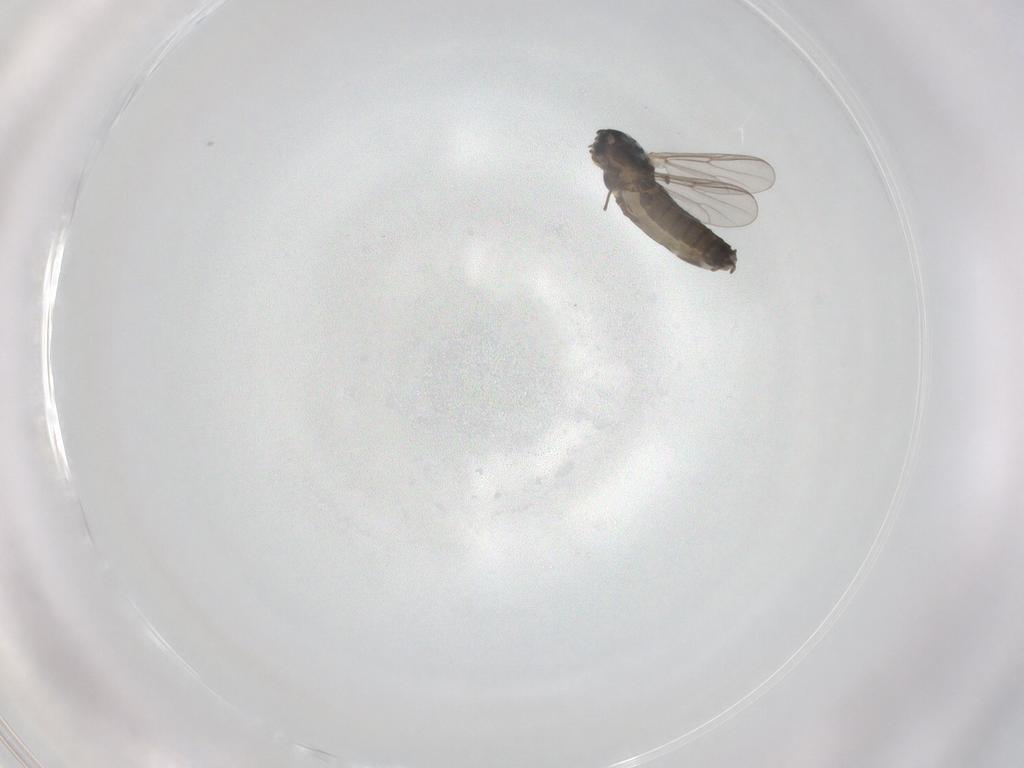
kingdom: Animalia
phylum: Arthropoda
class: Insecta
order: Diptera
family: Chironomidae
